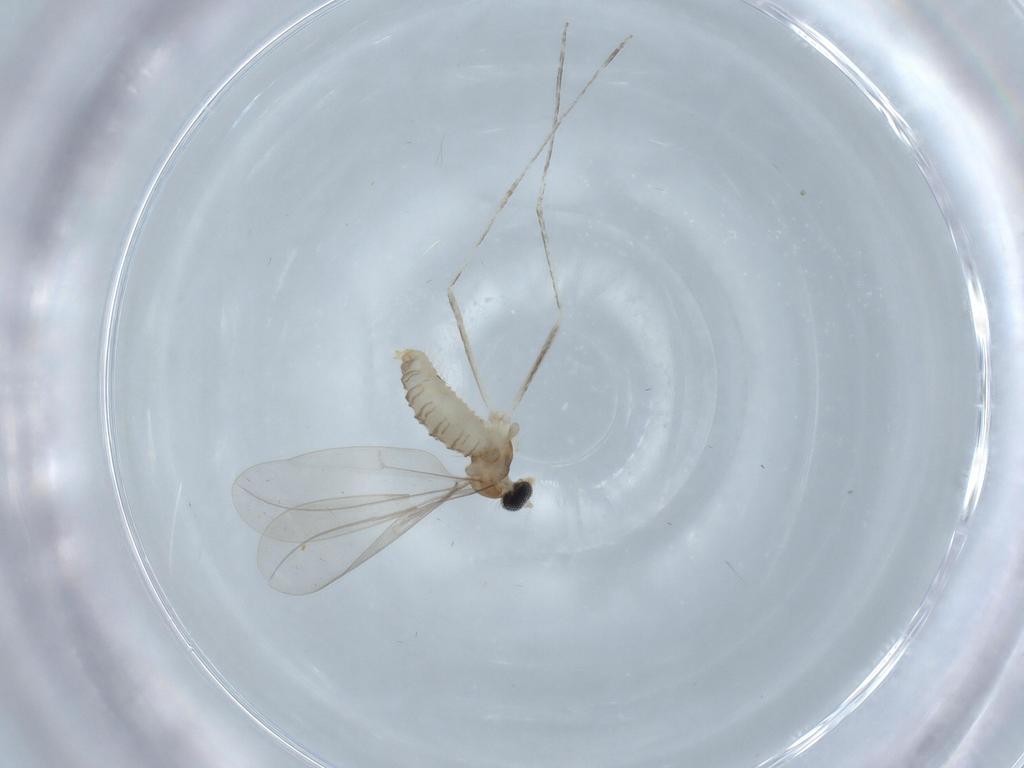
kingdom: Animalia
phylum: Arthropoda
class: Insecta
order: Diptera
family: Cecidomyiidae
